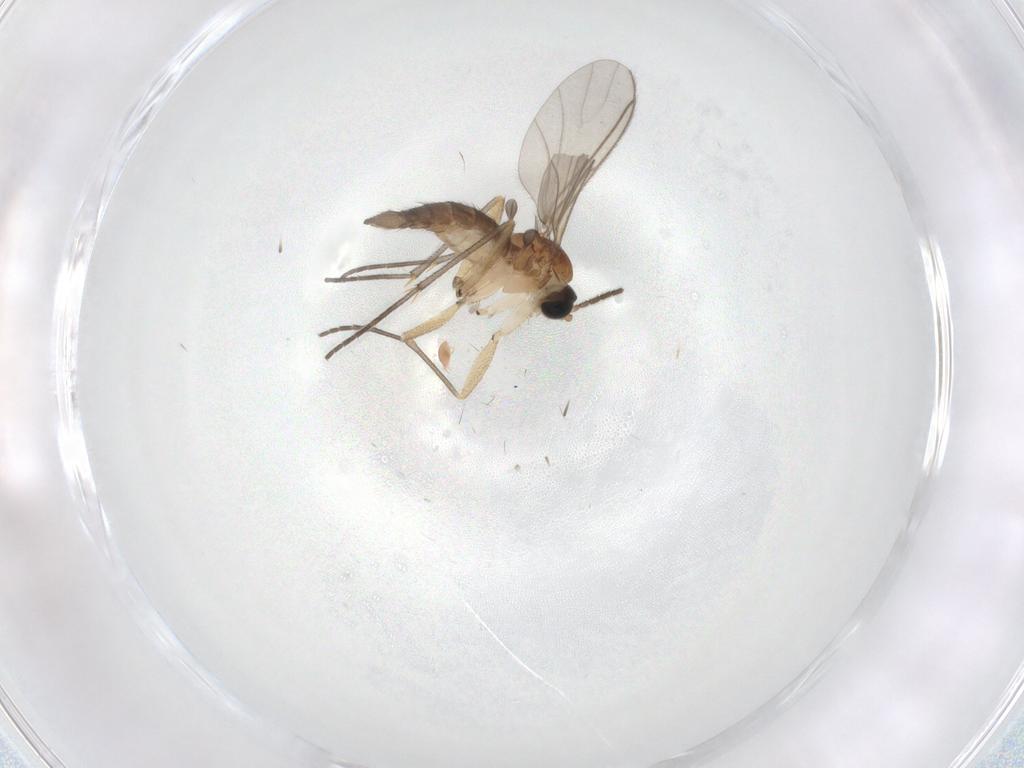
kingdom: Animalia
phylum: Arthropoda
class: Insecta
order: Diptera
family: Sciaridae
